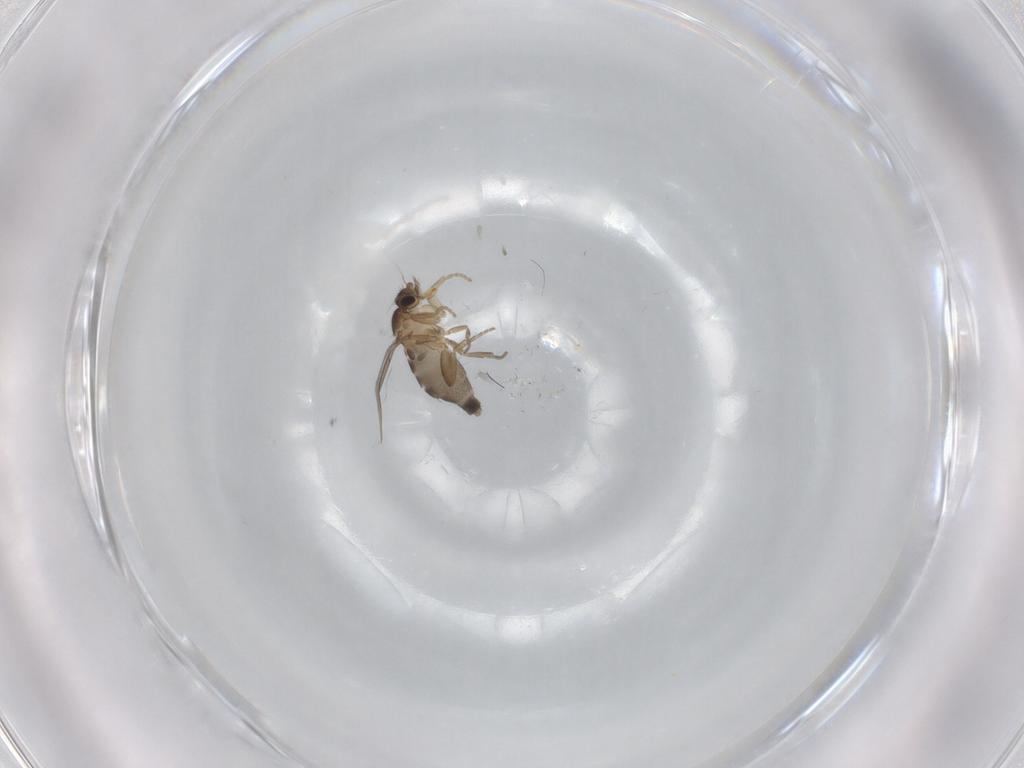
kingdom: Animalia
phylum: Arthropoda
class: Insecta
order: Diptera
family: Phoridae
